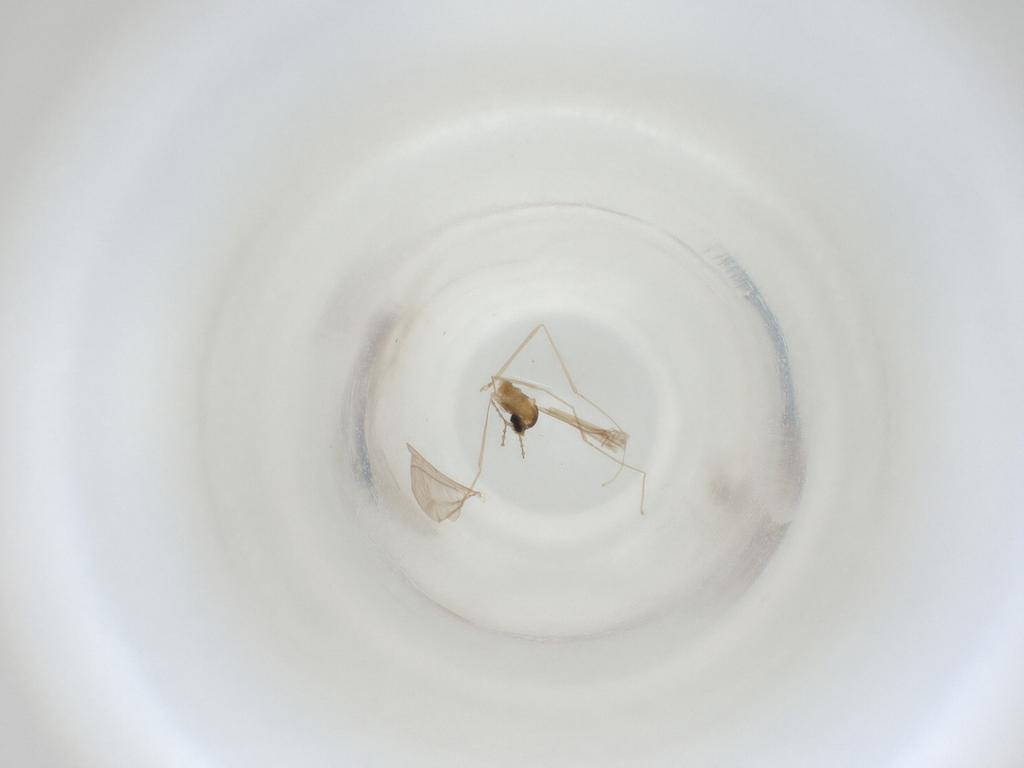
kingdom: Animalia
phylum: Arthropoda
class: Insecta
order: Diptera
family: Cecidomyiidae
